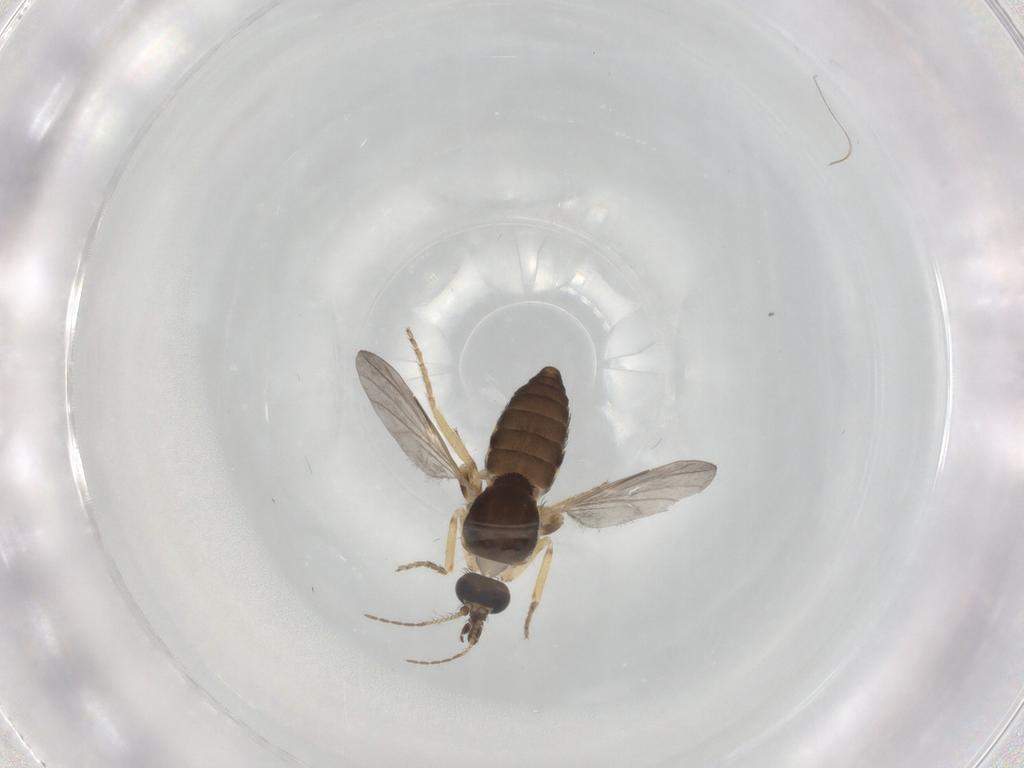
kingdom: Animalia
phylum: Arthropoda
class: Insecta
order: Diptera
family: Ceratopogonidae
